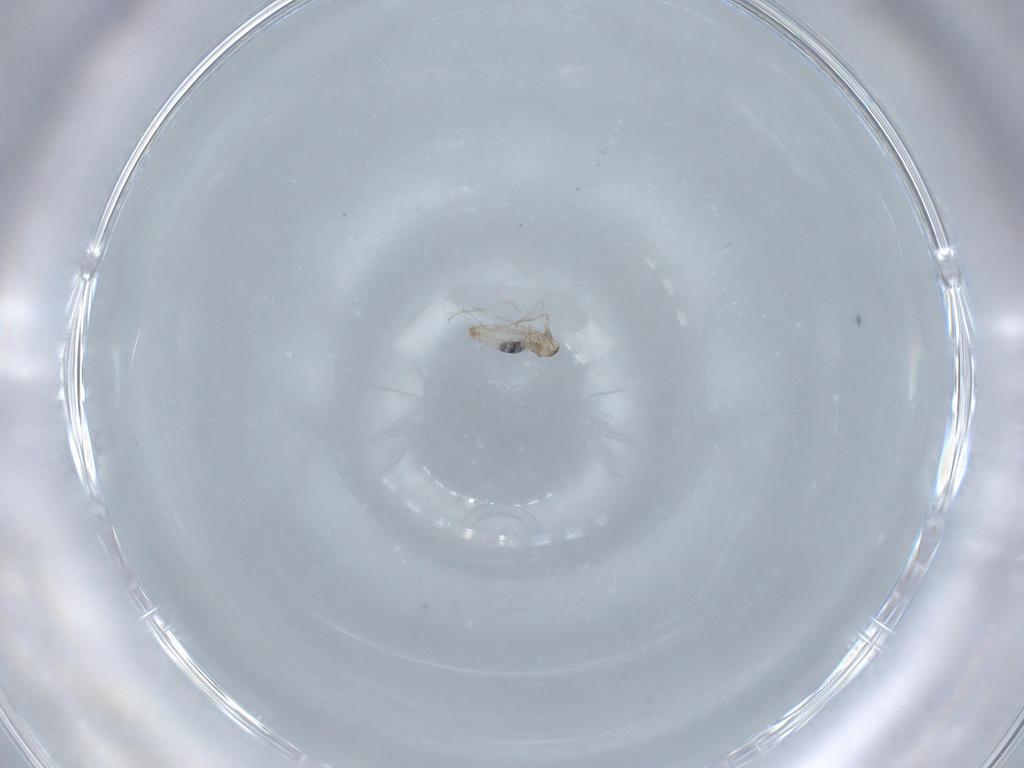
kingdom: Animalia
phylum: Arthropoda
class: Insecta
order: Diptera
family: Cecidomyiidae
